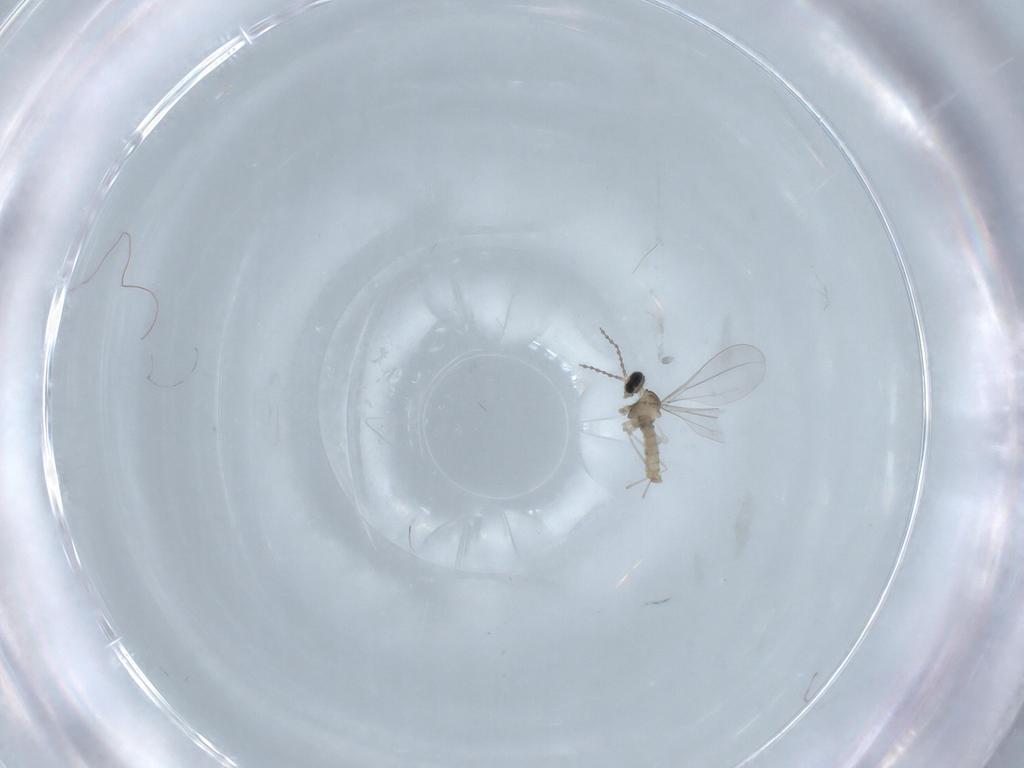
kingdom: Animalia
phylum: Arthropoda
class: Insecta
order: Diptera
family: Cecidomyiidae
